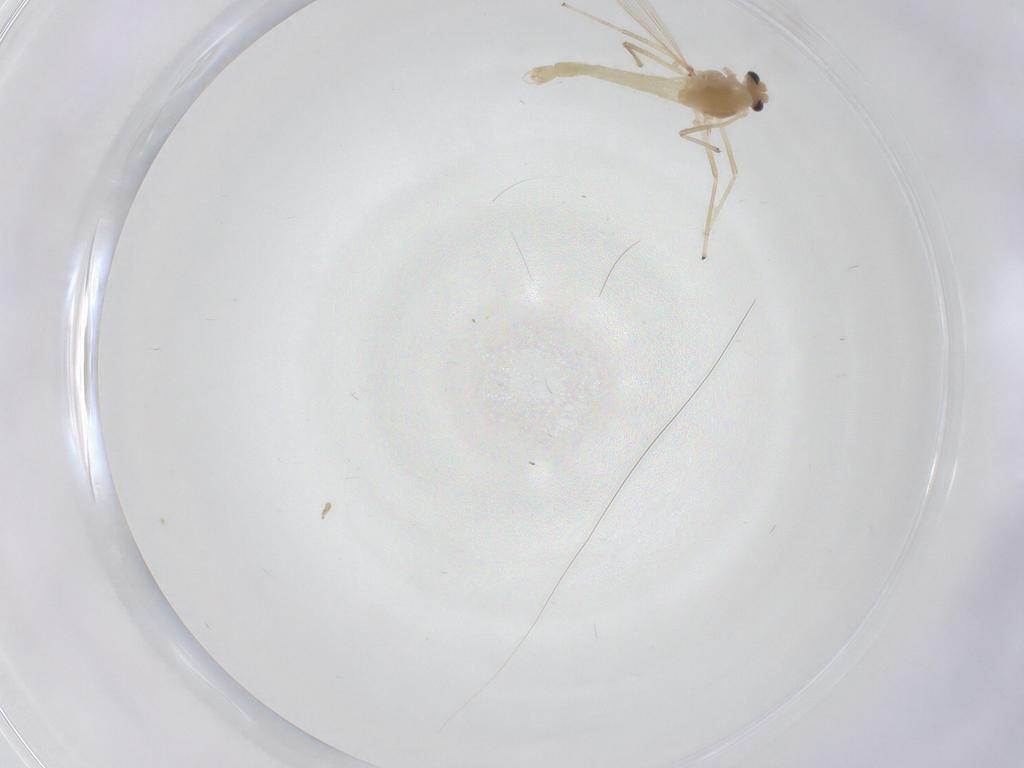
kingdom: Animalia
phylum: Arthropoda
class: Insecta
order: Diptera
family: Chironomidae
